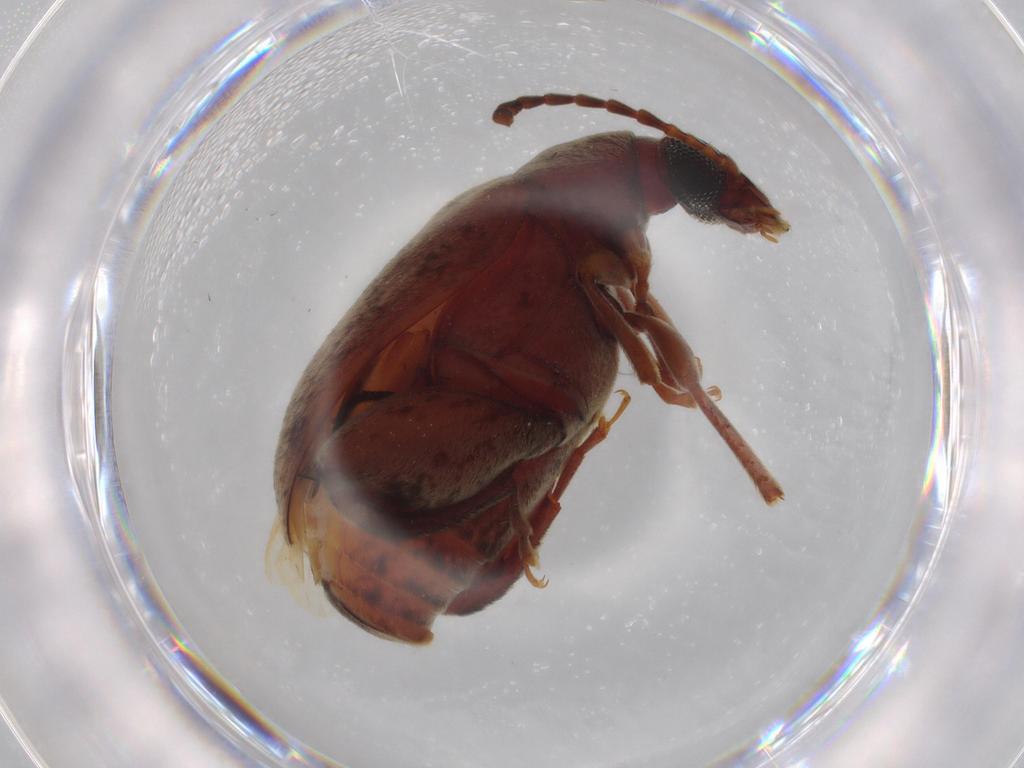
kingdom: Animalia
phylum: Arthropoda
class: Insecta
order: Coleoptera
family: Chrysomelidae
